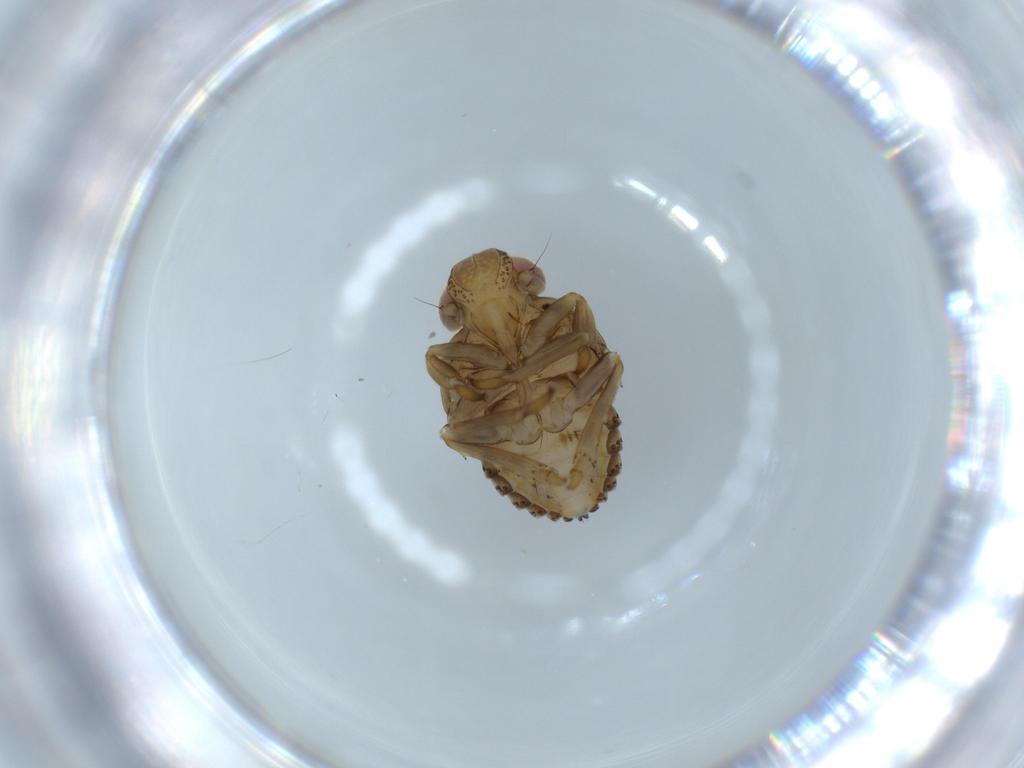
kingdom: Animalia
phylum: Arthropoda
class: Insecta
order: Hemiptera
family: Issidae
